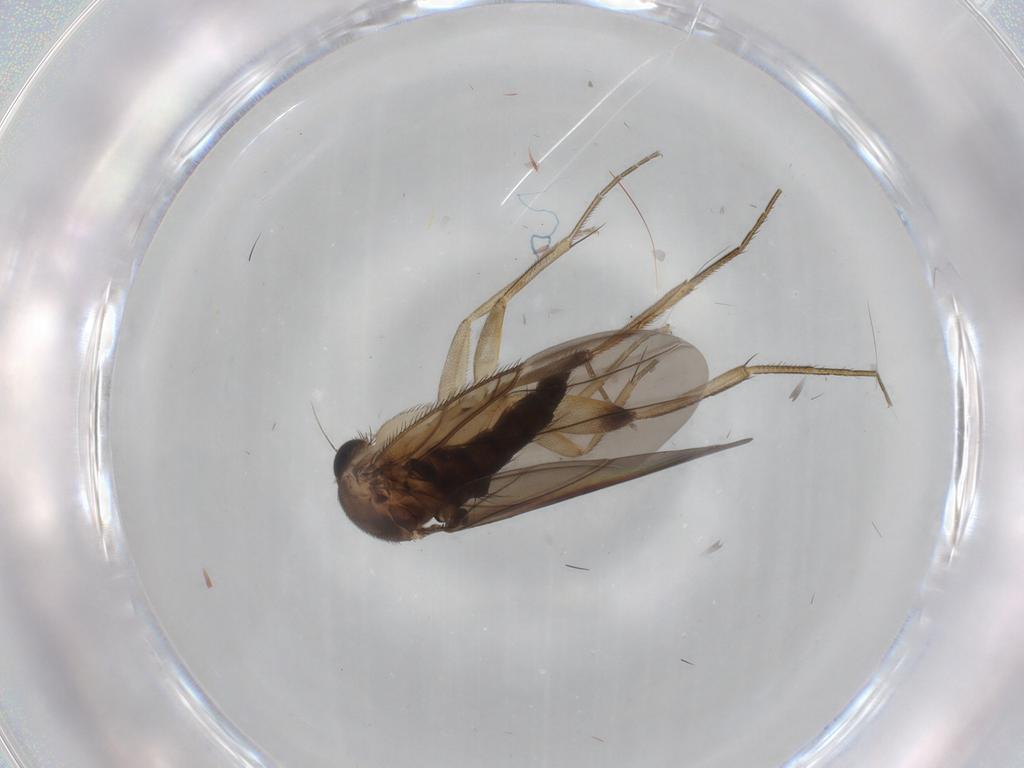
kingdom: Animalia
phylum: Arthropoda
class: Insecta
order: Diptera
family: Phoridae
